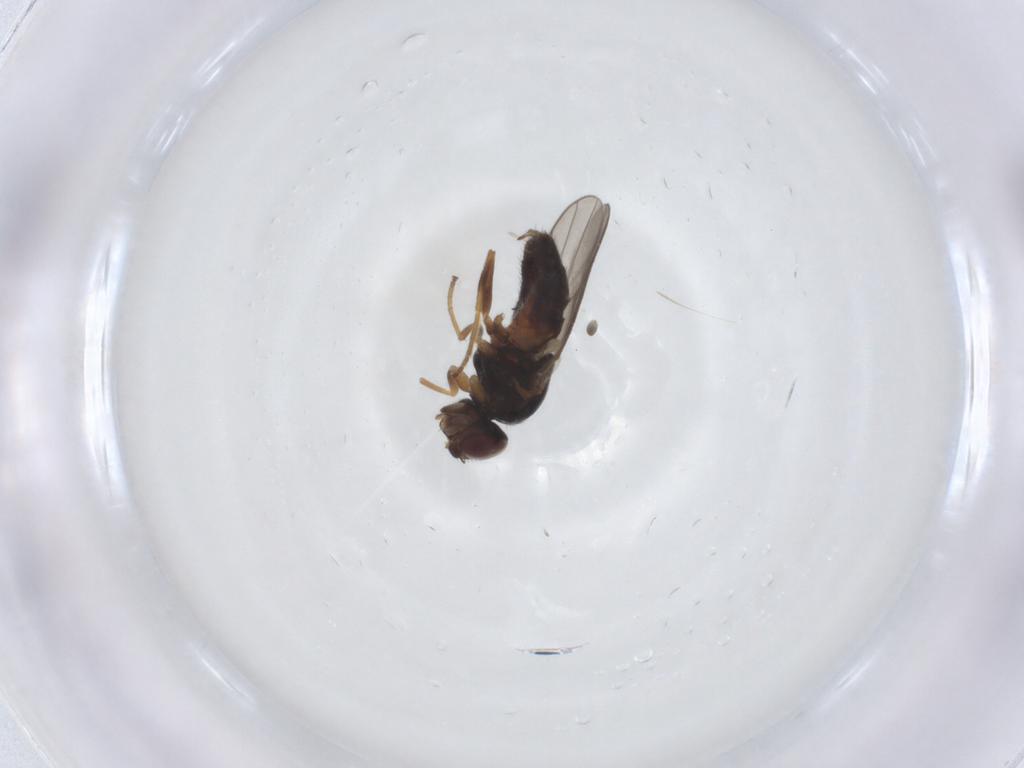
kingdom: Animalia
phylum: Arthropoda
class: Insecta
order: Diptera
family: Chloropidae
